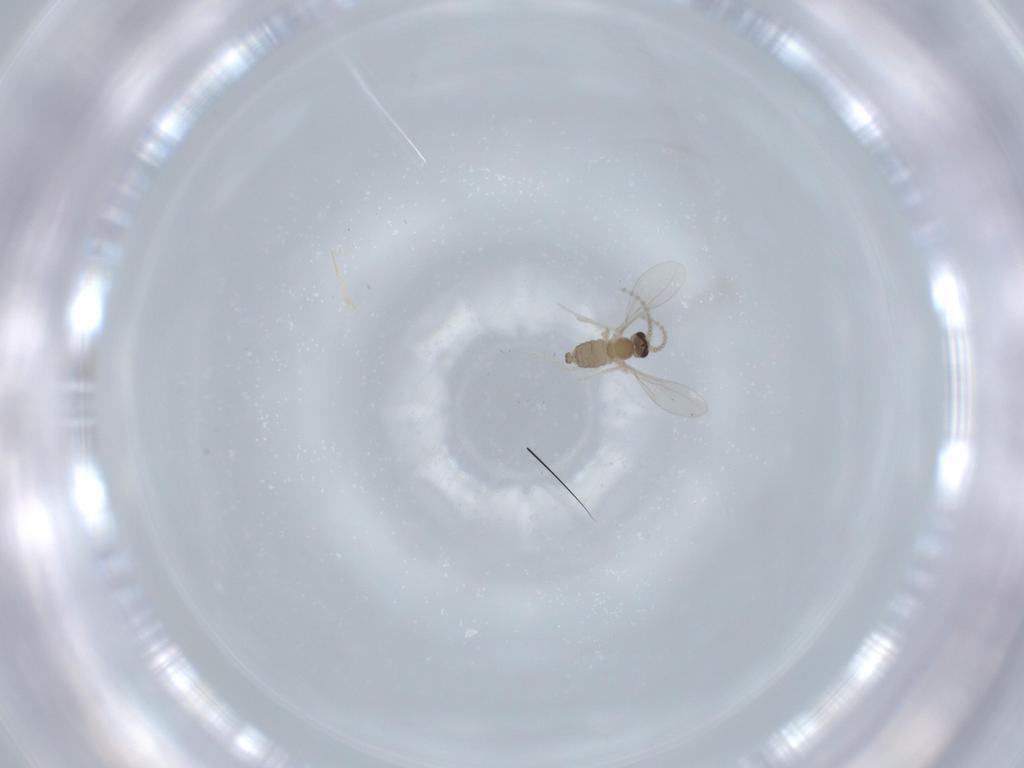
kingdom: Animalia
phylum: Arthropoda
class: Insecta
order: Diptera
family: Cecidomyiidae
